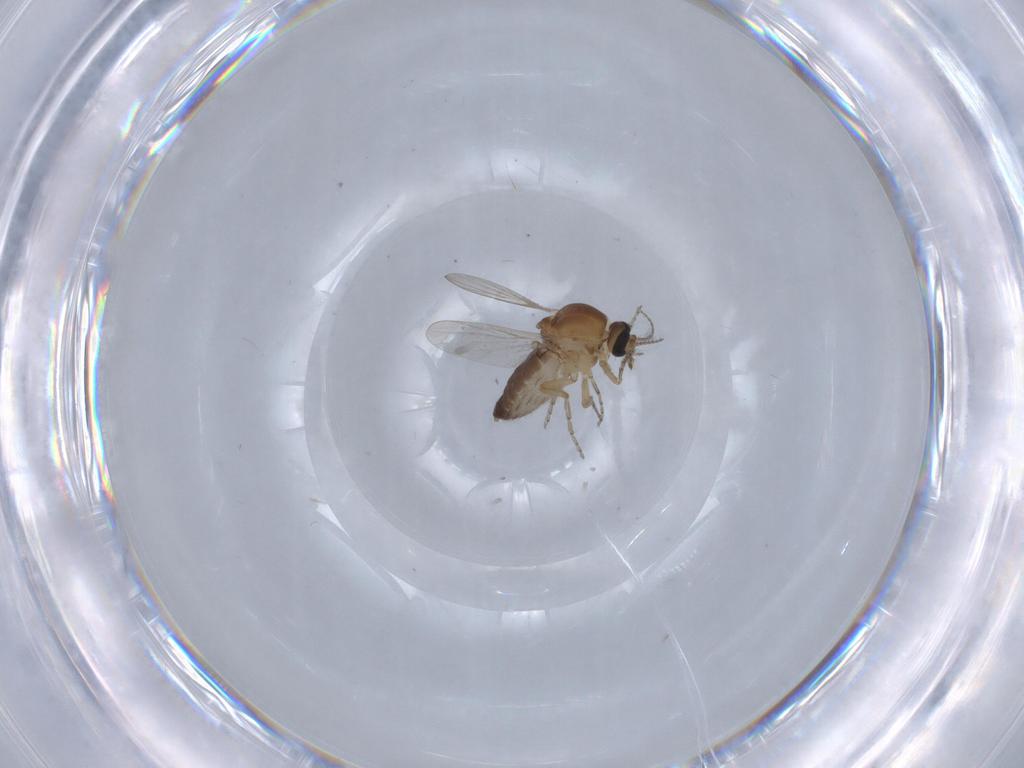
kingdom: Animalia
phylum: Arthropoda
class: Insecta
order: Diptera
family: Ceratopogonidae
